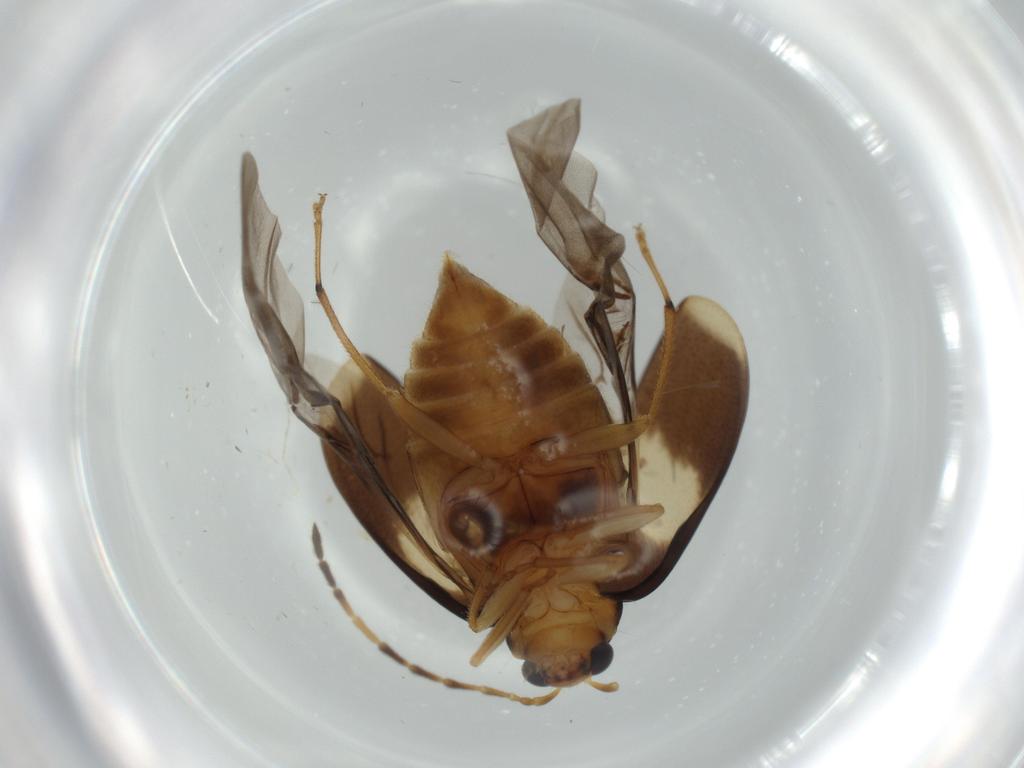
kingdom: Animalia
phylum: Arthropoda
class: Insecta
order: Coleoptera
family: Chrysomelidae
